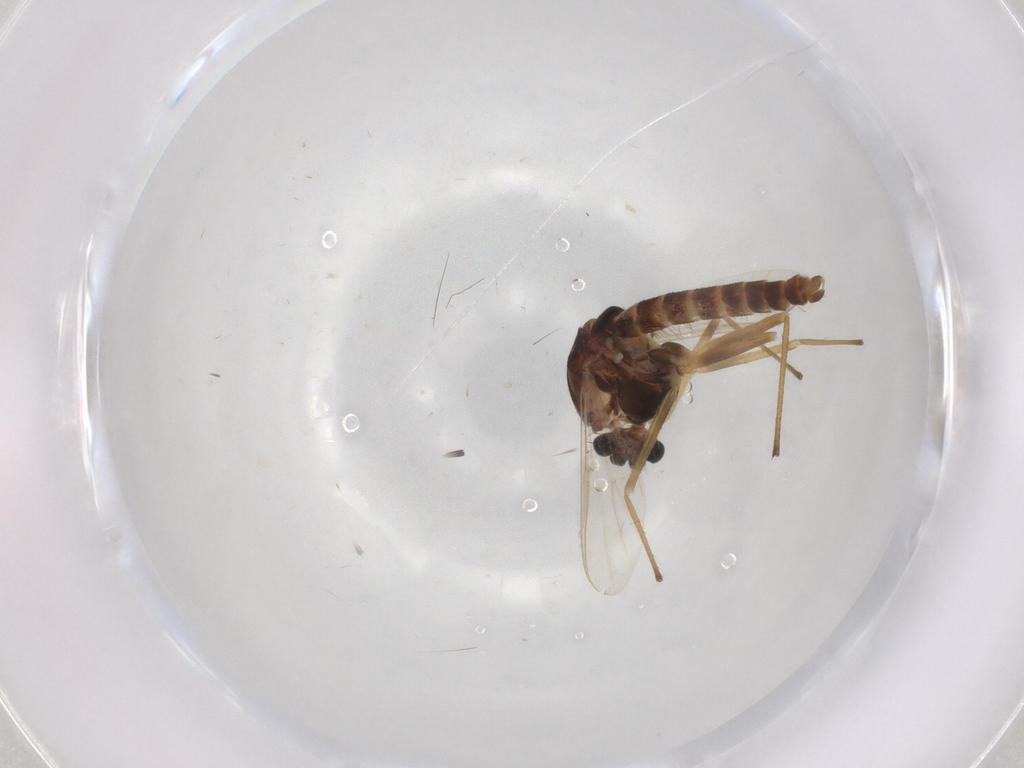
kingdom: Animalia
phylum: Arthropoda
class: Insecta
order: Diptera
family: Chironomidae
